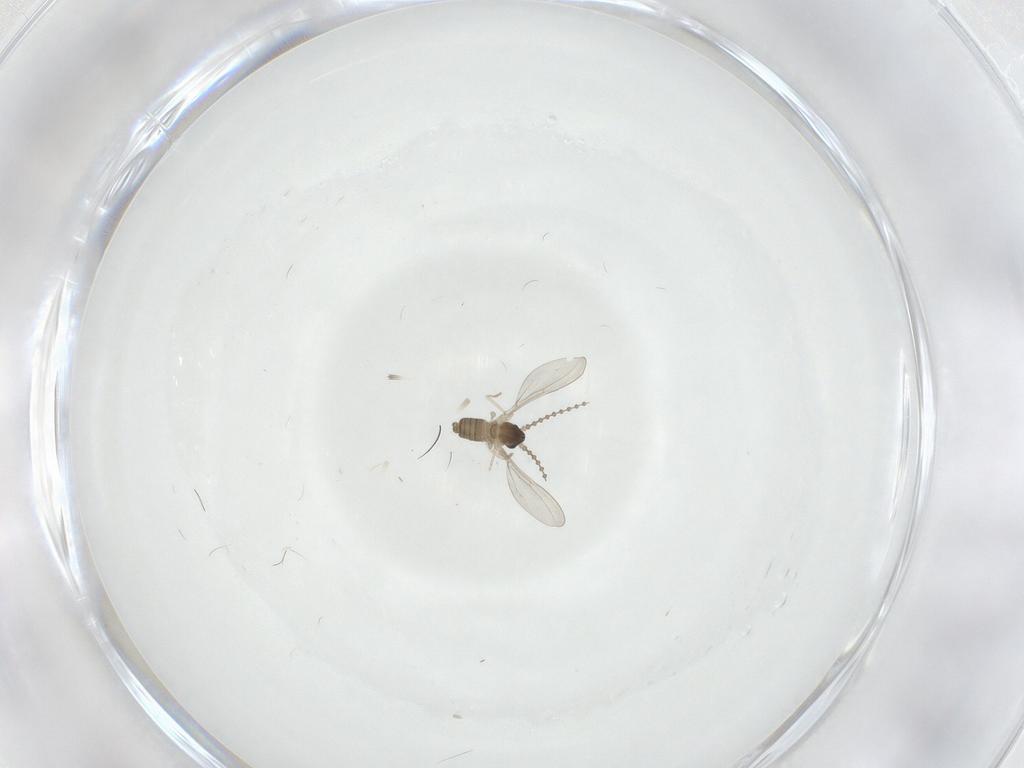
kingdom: Animalia
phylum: Arthropoda
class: Insecta
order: Diptera
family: Cecidomyiidae
